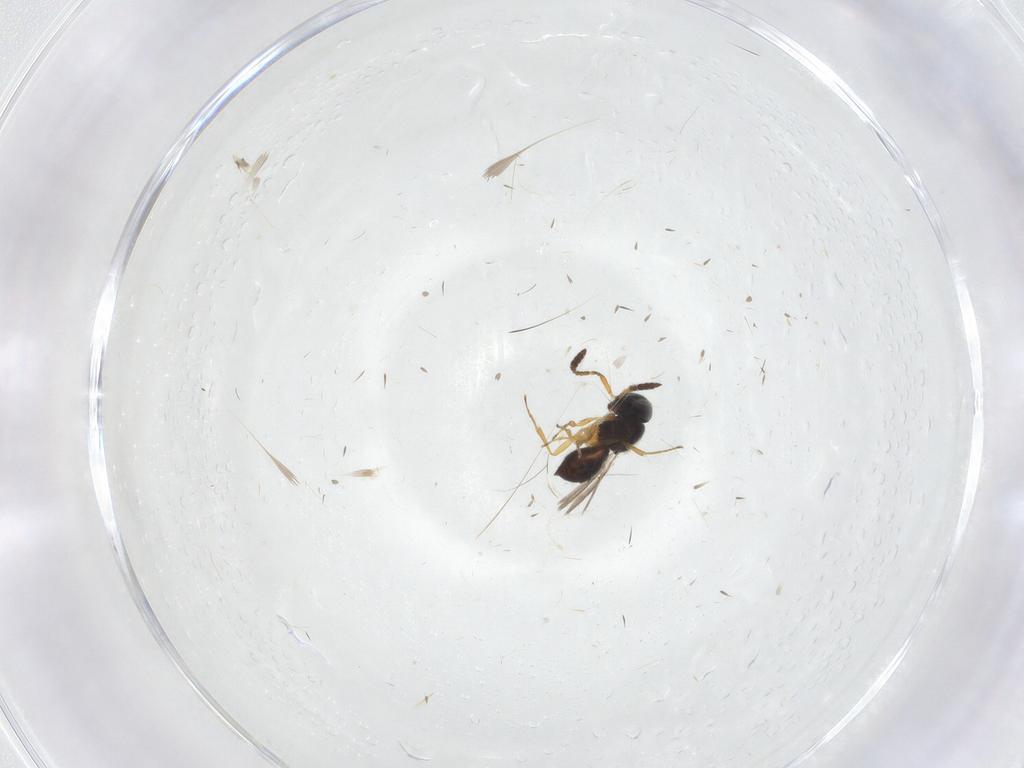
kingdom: Animalia
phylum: Arthropoda
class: Insecta
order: Hymenoptera
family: Scelionidae
